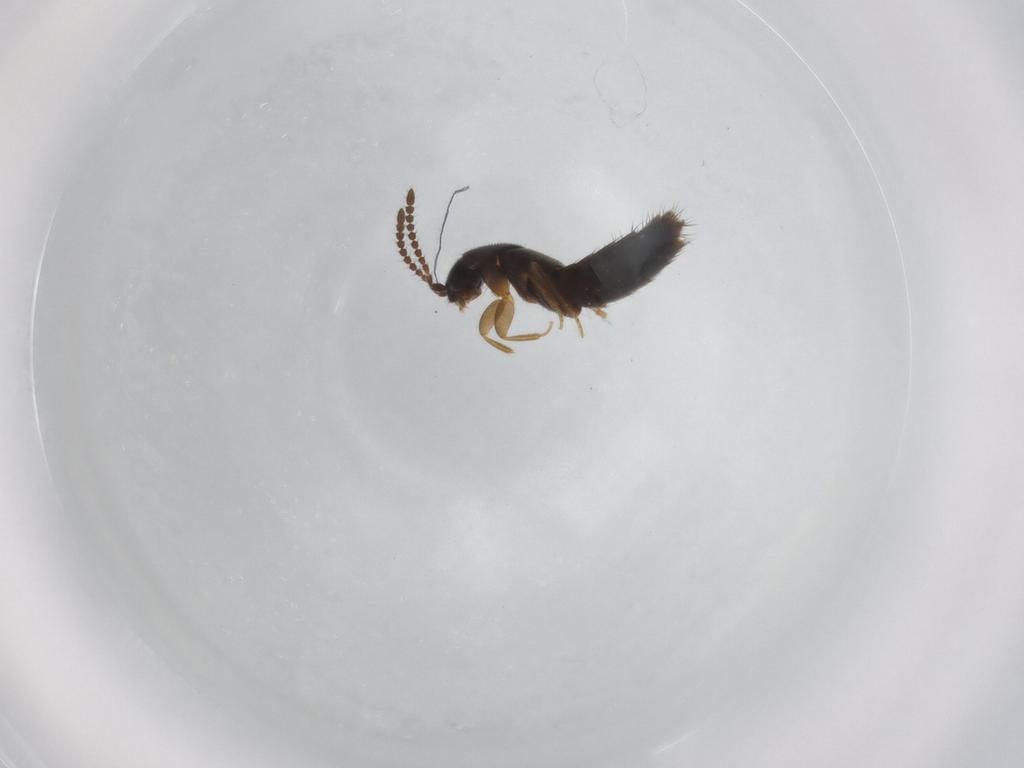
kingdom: Animalia
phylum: Arthropoda
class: Insecta
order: Coleoptera
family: Staphylinidae
